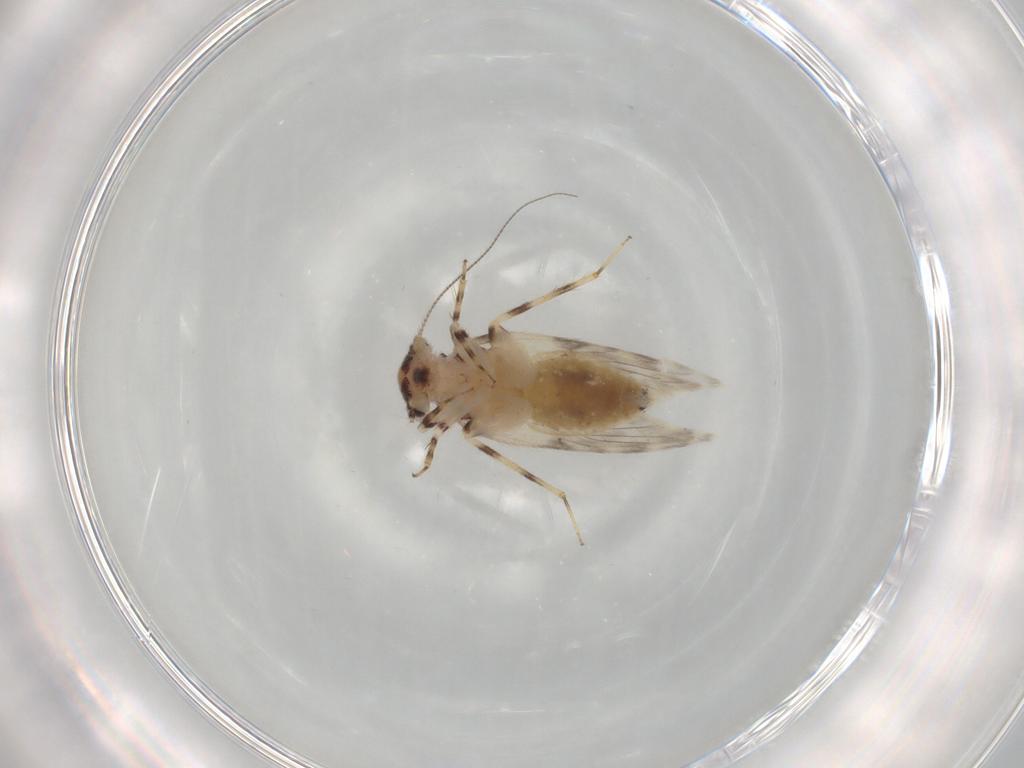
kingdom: Animalia
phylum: Arthropoda
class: Insecta
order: Psocodea
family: Lepidopsocidae
